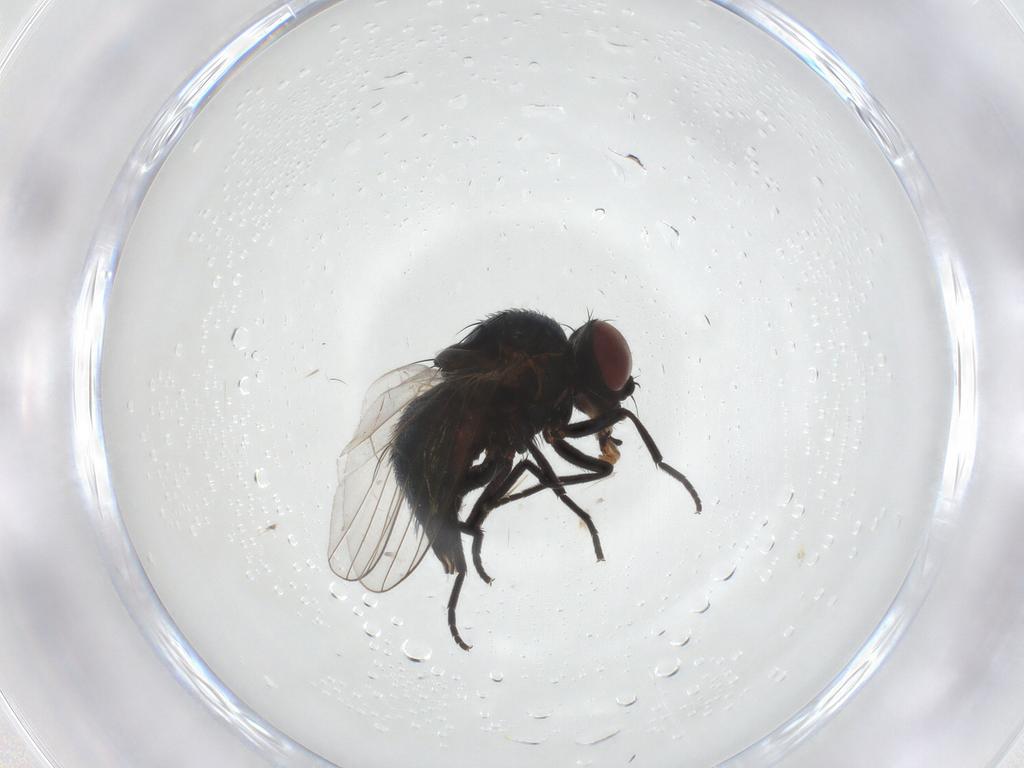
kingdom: Animalia
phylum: Arthropoda
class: Insecta
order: Diptera
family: Agromyzidae
